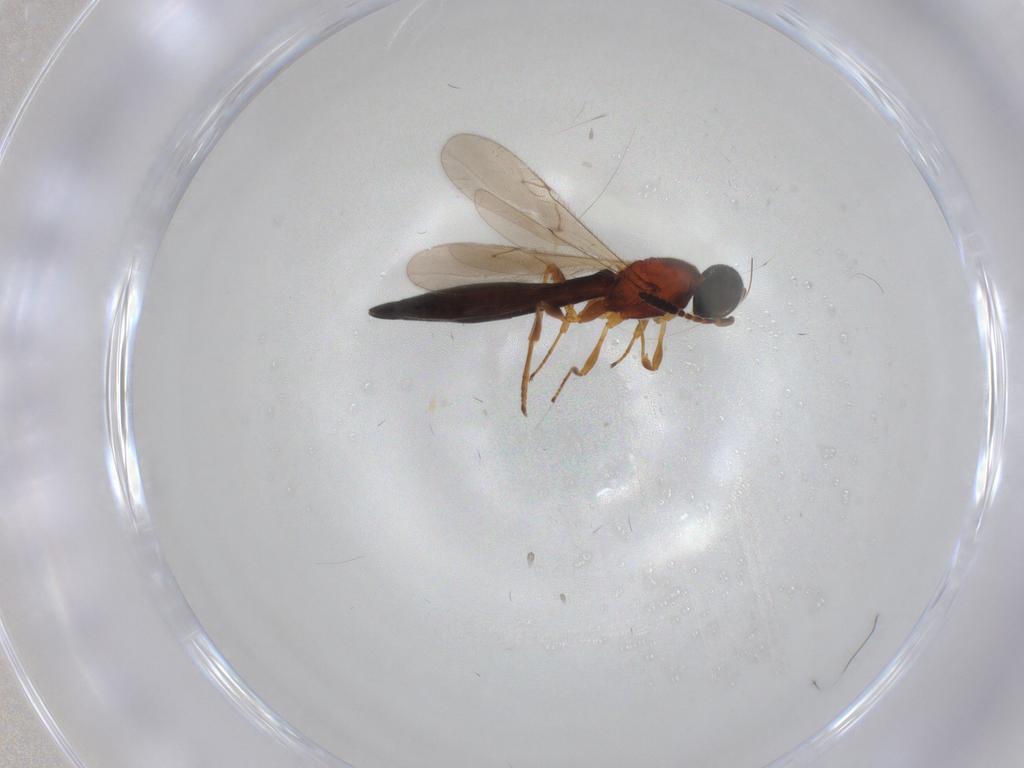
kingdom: Animalia
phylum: Arthropoda
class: Insecta
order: Hymenoptera
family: Scelionidae
